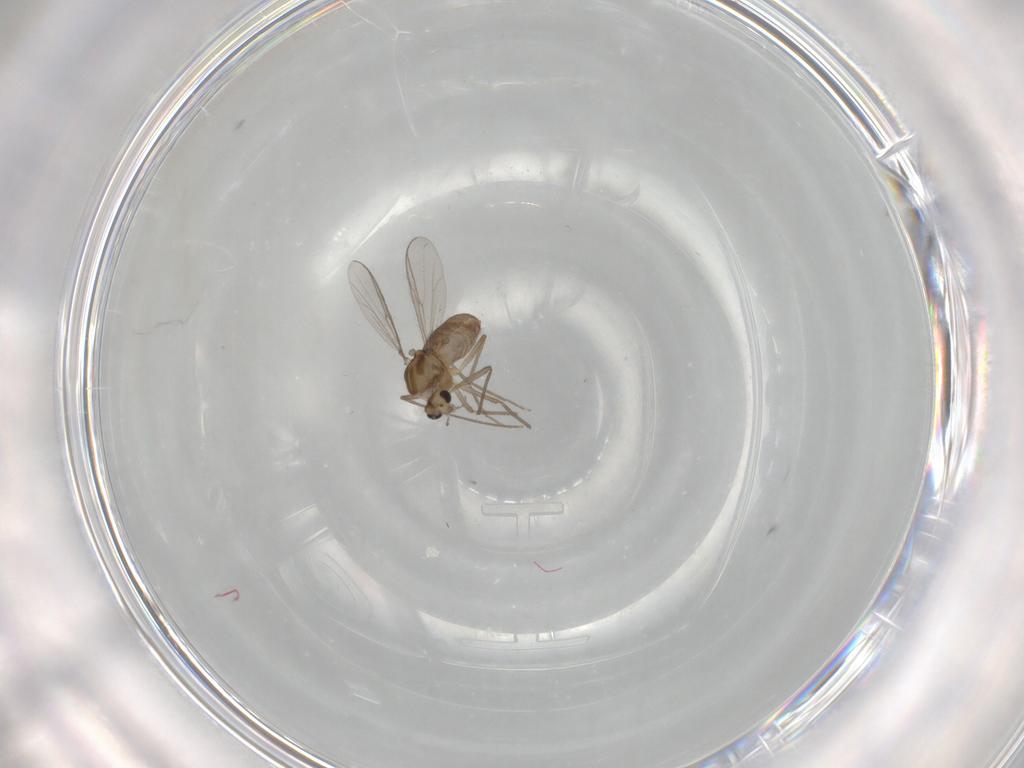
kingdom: Animalia
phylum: Arthropoda
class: Insecta
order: Diptera
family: Chironomidae
